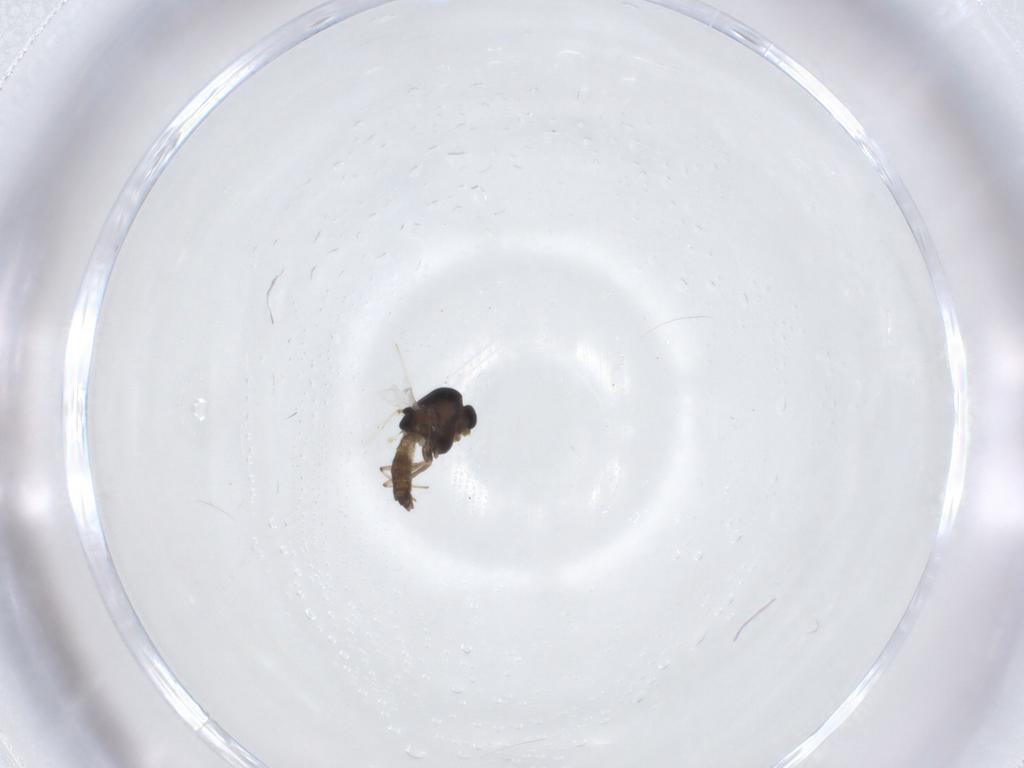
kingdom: Animalia
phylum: Arthropoda
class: Insecta
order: Diptera
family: Chironomidae
